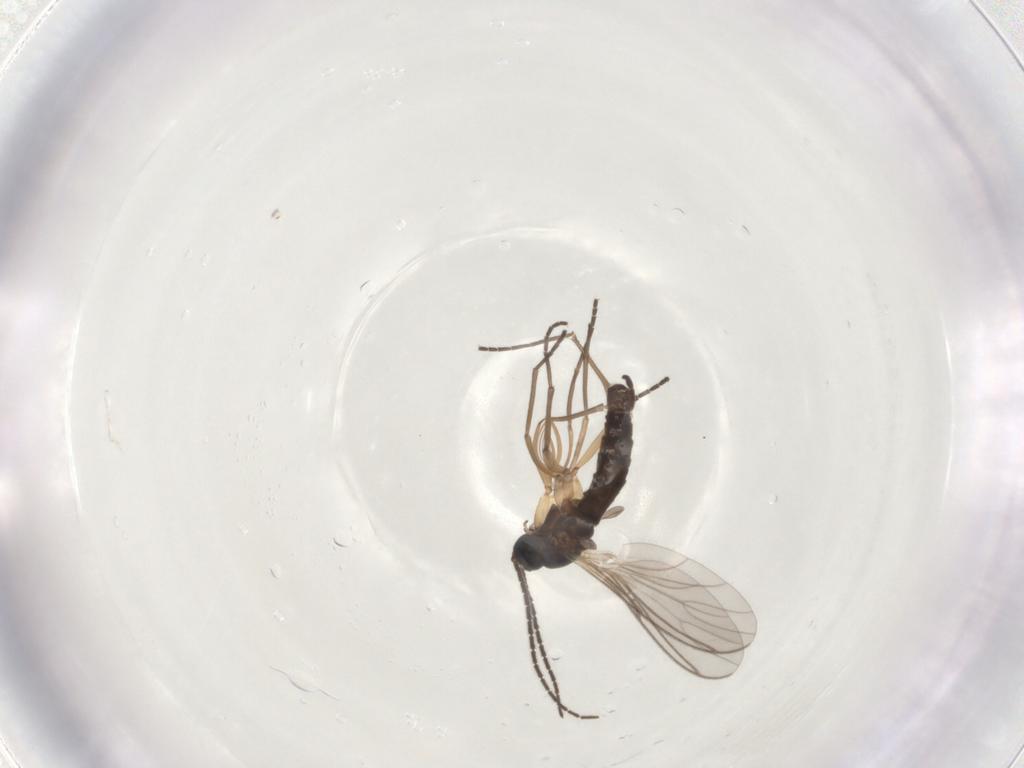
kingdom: Animalia
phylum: Arthropoda
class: Insecta
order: Diptera
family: Sciaridae
